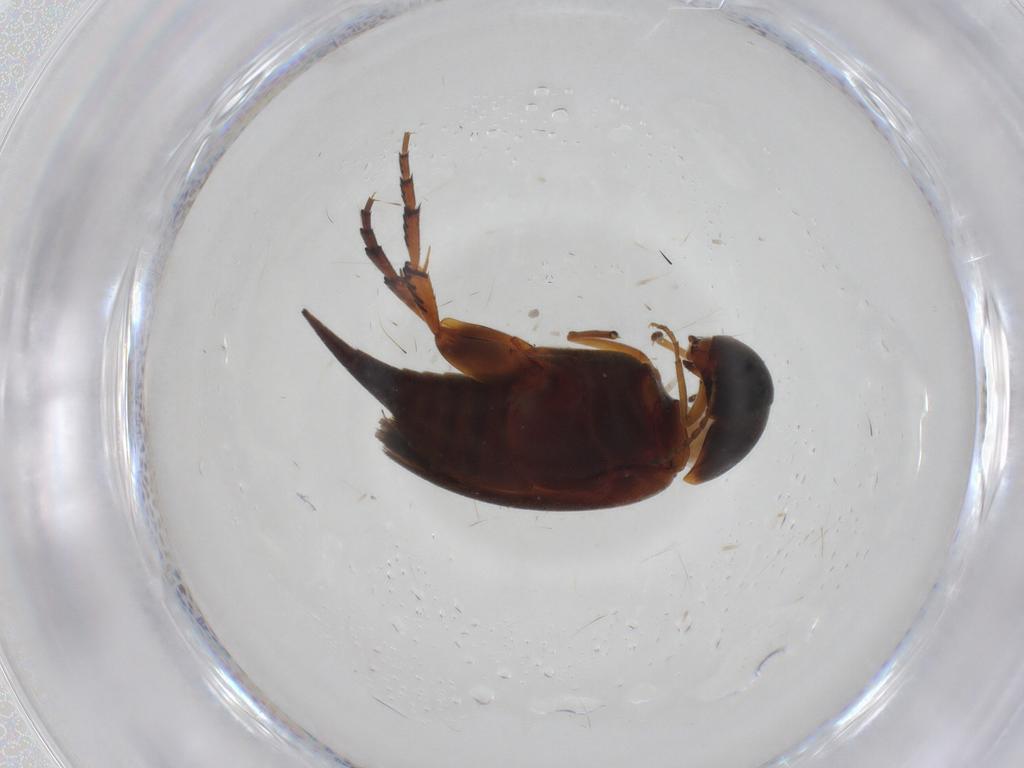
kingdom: Animalia
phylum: Arthropoda
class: Insecta
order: Coleoptera
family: Mordellidae
